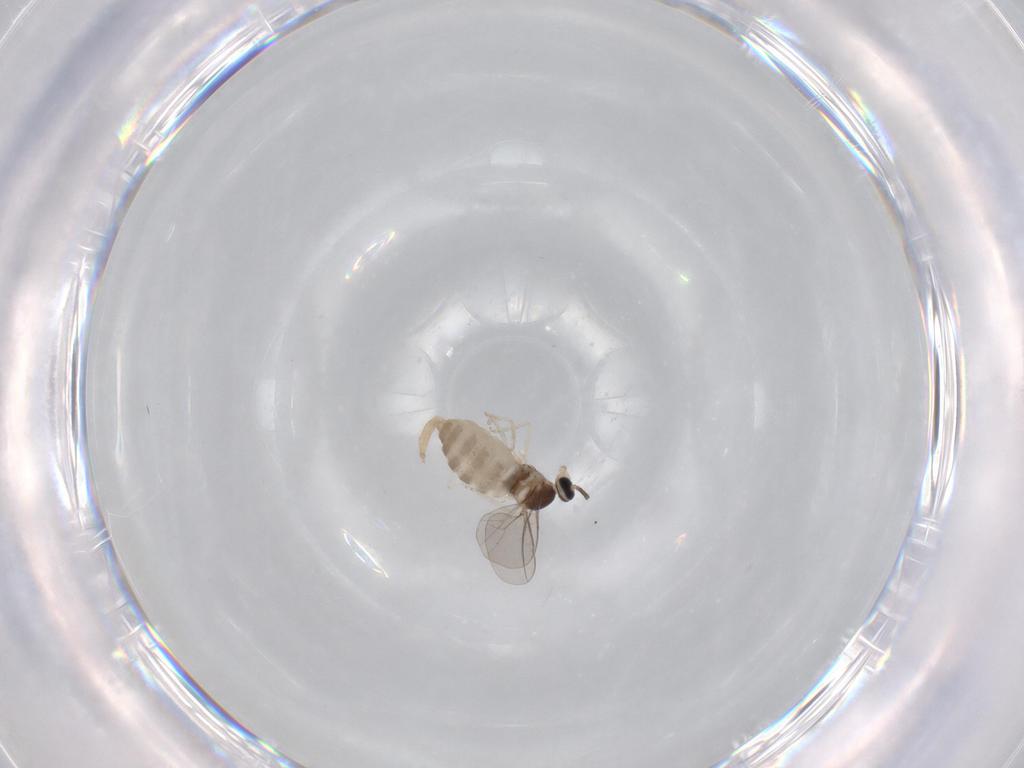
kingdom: Animalia
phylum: Arthropoda
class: Insecta
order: Diptera
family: Cecidomyiidae
